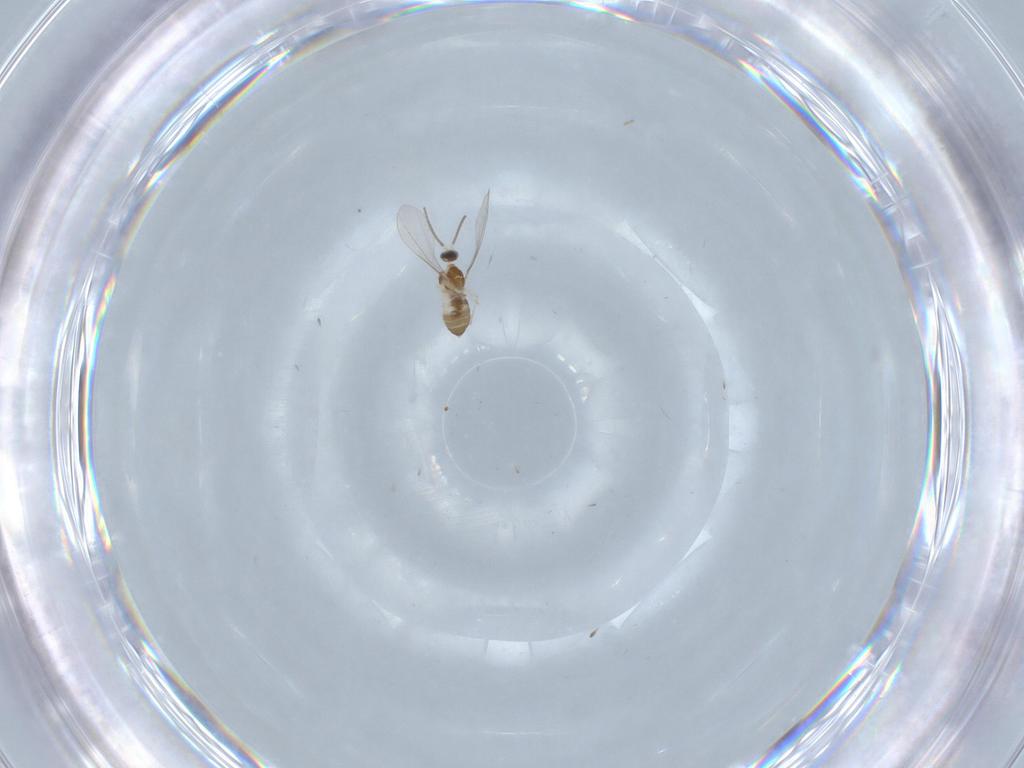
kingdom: Animalia
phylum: Arthropoda
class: Insecta
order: Diptera
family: Cecidomyiidae
